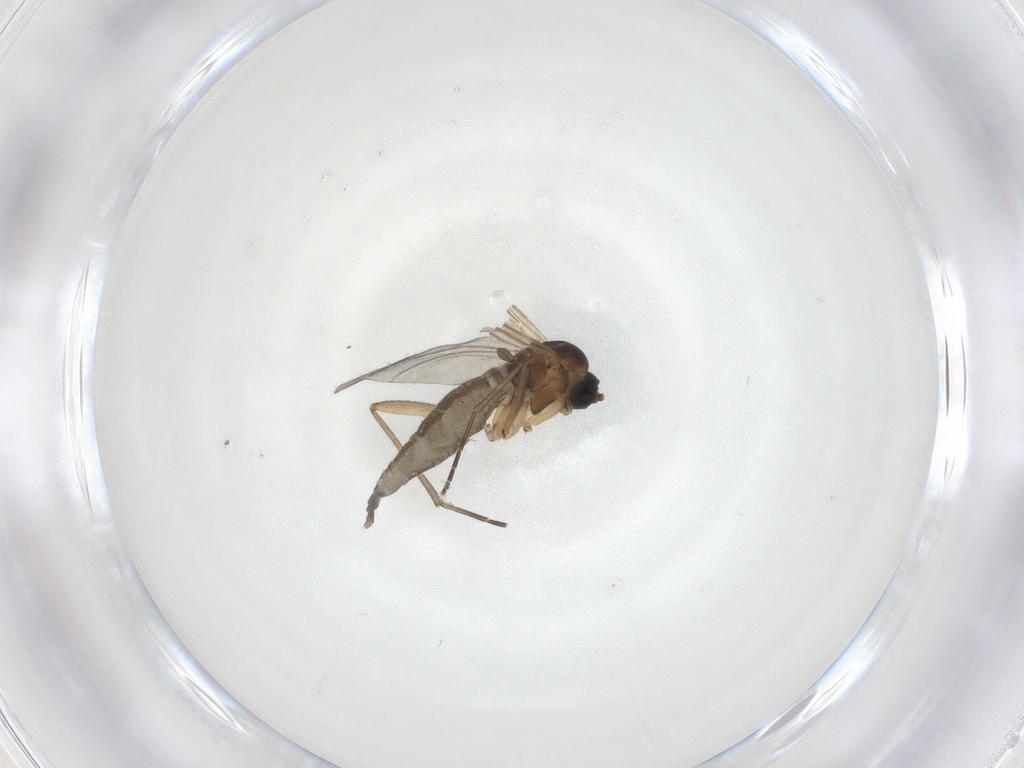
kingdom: Animalia
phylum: Arthropoda
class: Insecta
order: Diptera
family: Sciaridae
